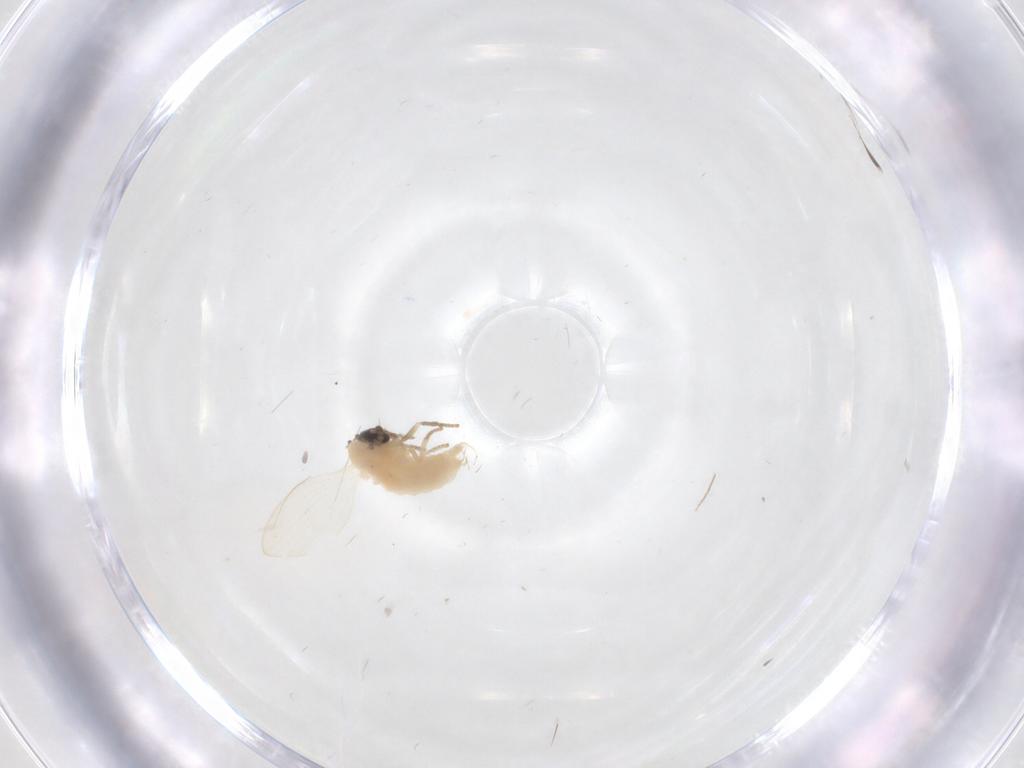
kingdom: Animalia
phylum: Arthropoda
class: Insecta
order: Diptera
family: Psychodidae
